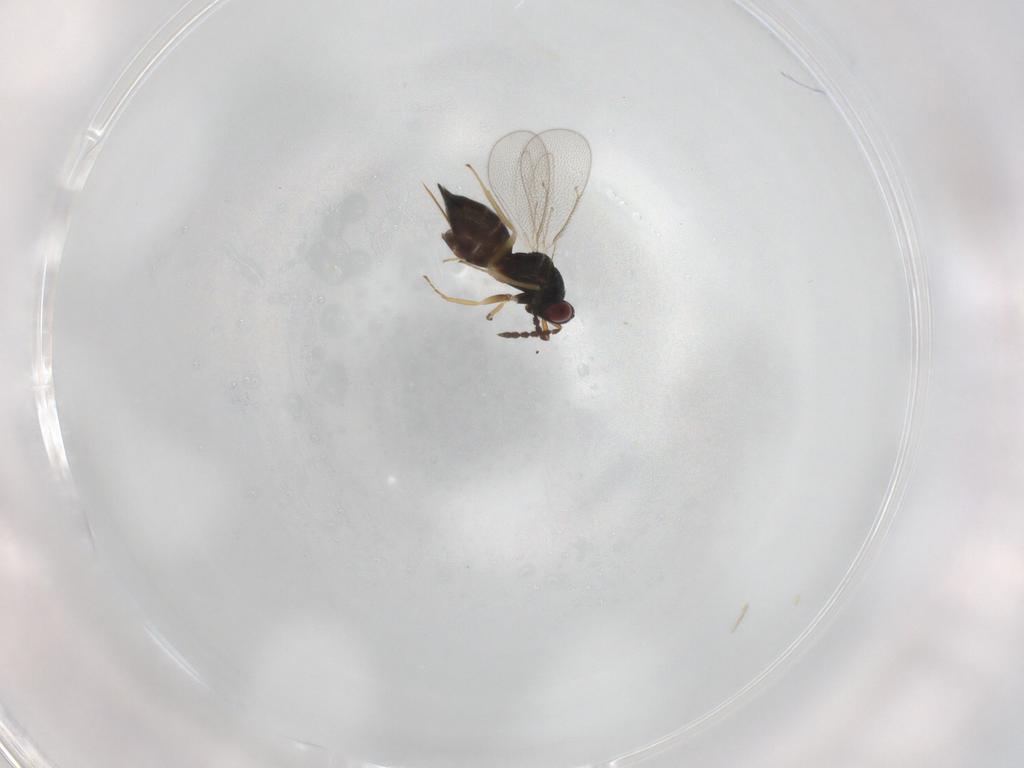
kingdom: Animalia
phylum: Arthropoda
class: Insecta
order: Hymenoptera
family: Eulophidae
